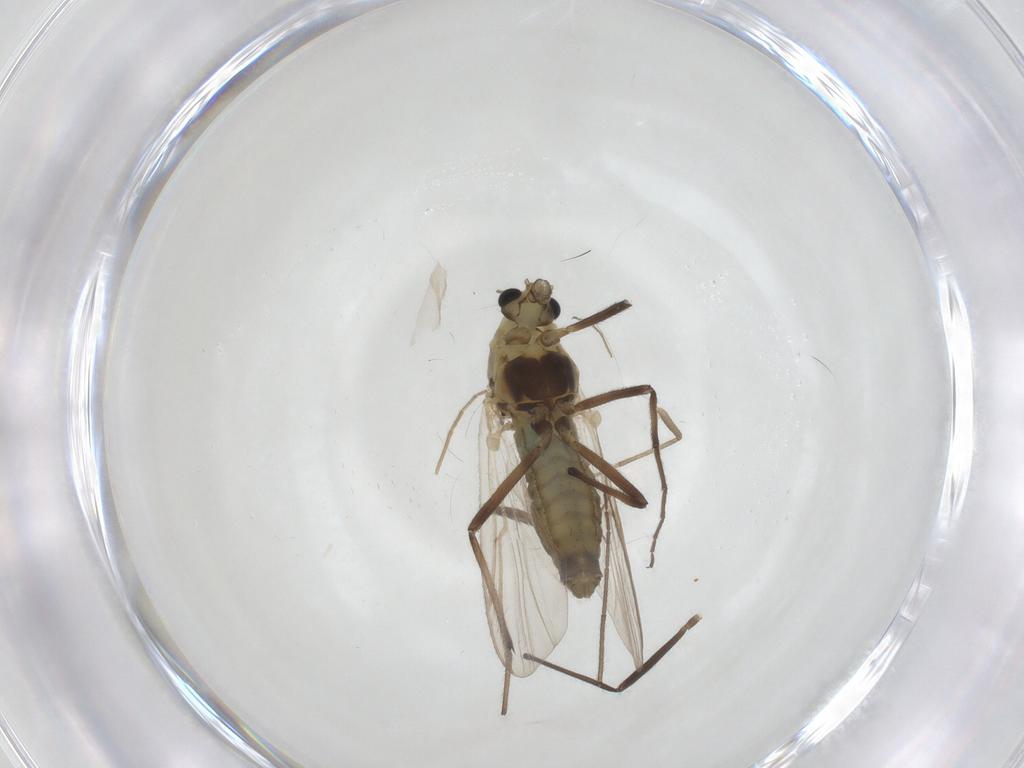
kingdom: Animalia
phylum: Arthropoda
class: Insecta
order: Diptera
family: Chironomidae
